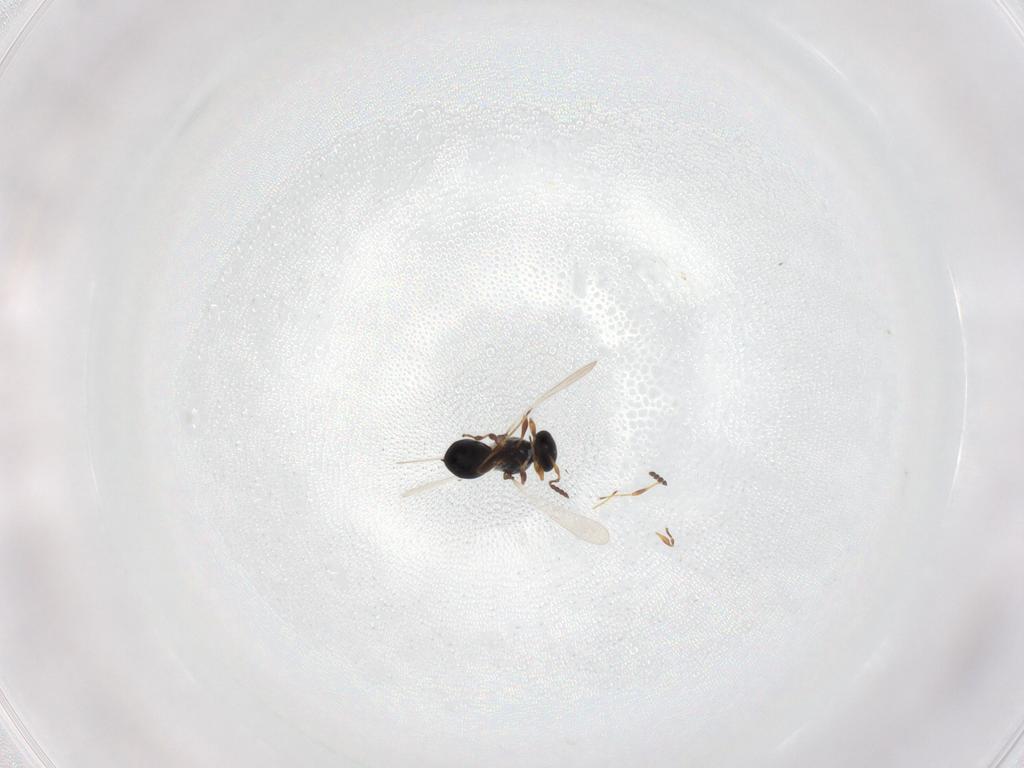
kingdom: Animalia
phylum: Arthropoda
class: Insecta
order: Hymenoptera
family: Platygastridae
